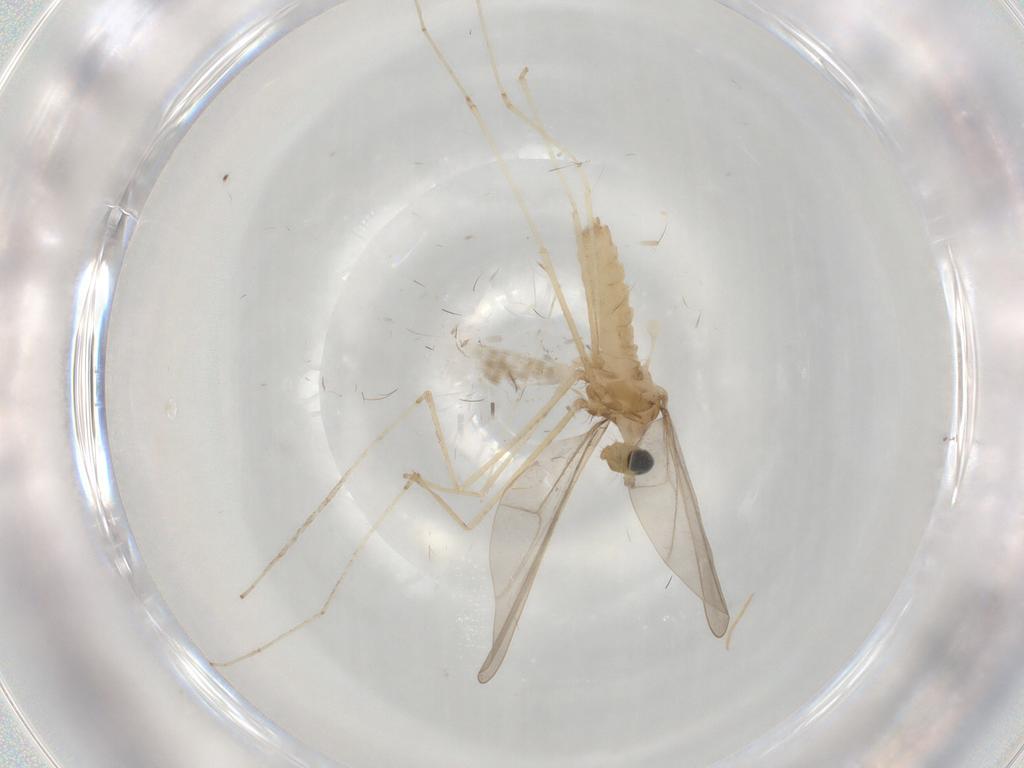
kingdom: Animalia
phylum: Arthropoda
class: Insecta
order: Diptera
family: Cecidomyiidae
